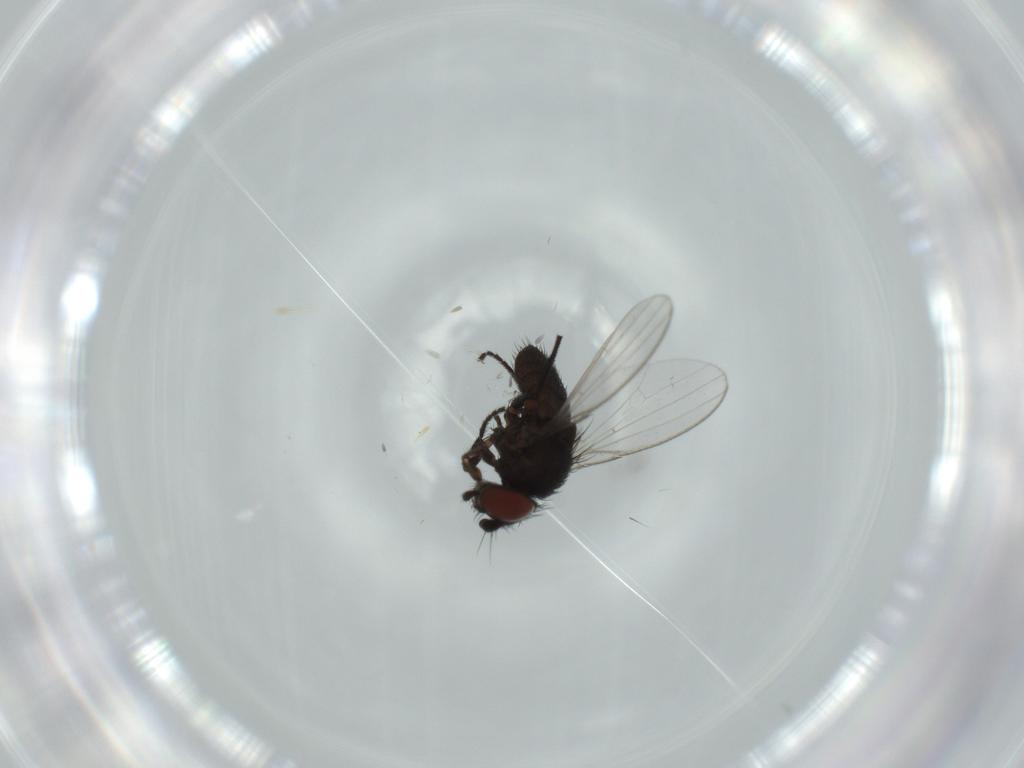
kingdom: Animalia
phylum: Arthropoda
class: Insecta
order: Diptera
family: Milichiidae
